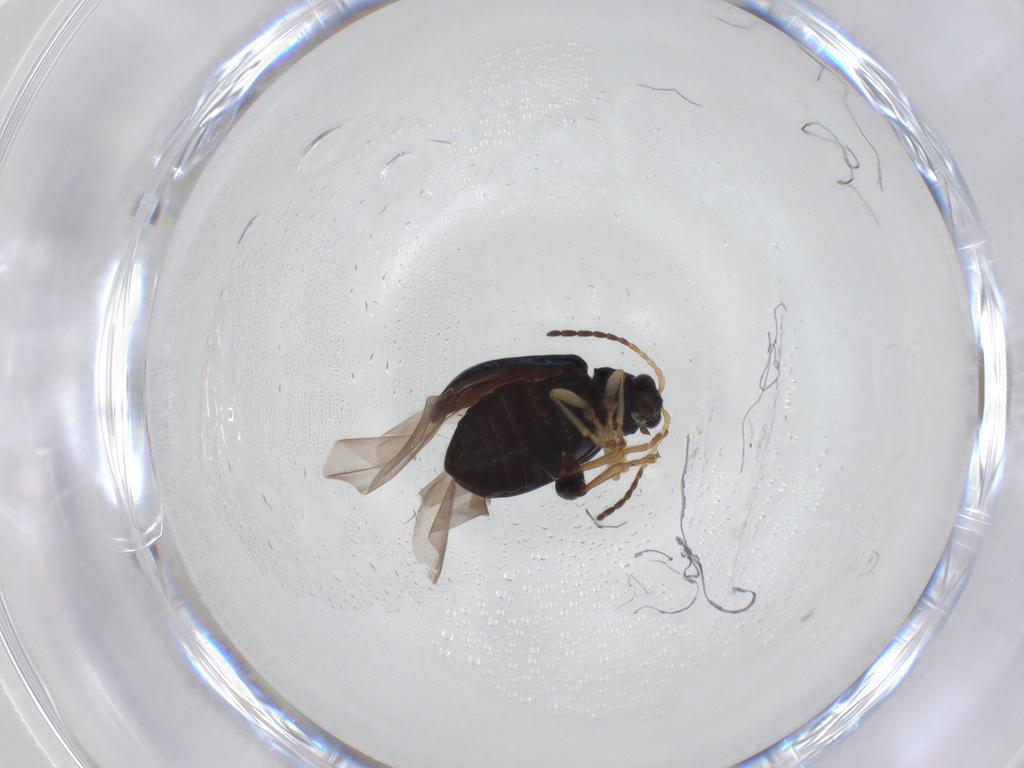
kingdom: Animalia
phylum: Arthropoda
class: Insecta
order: Coleoptera
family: Chrysomelidae
